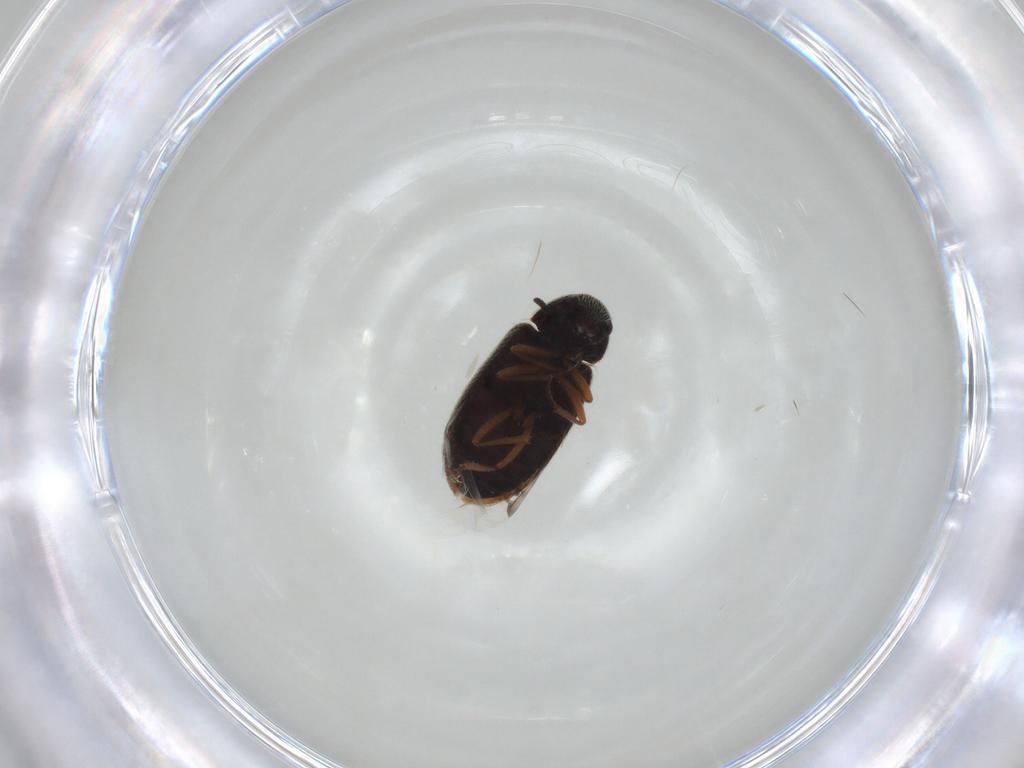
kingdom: Animalia
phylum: Arthropoda
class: Insecta
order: Coleoptera
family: Rhadalidae
